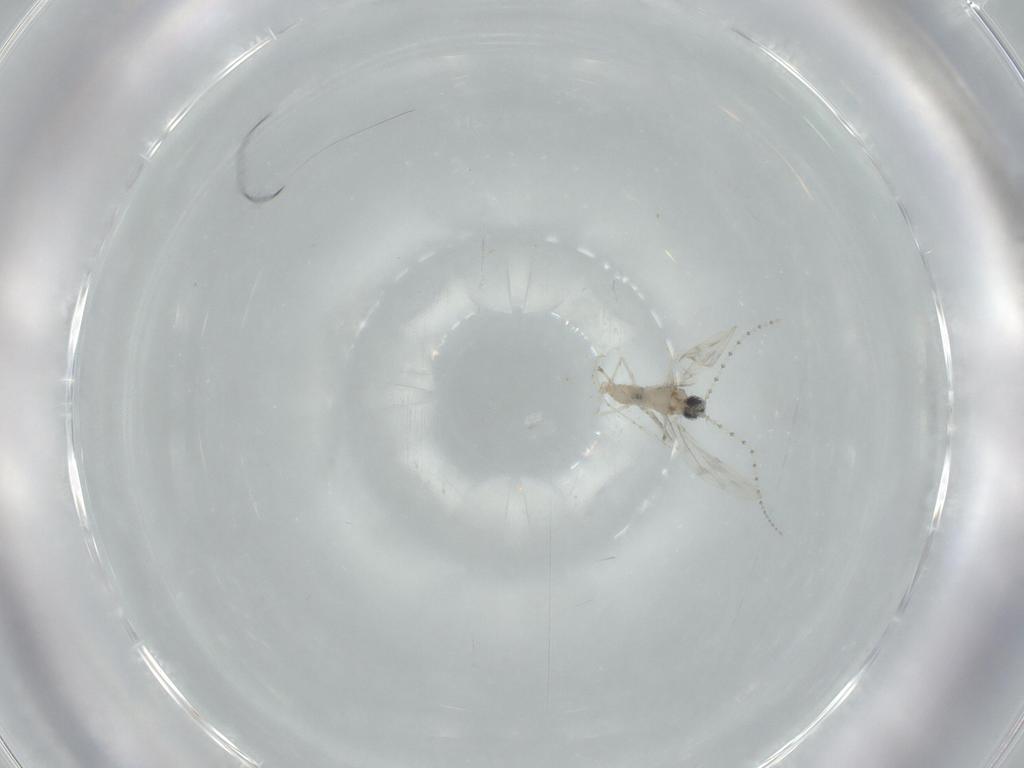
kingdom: Animalia
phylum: Arthropoda
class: Insecta
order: Diptera
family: Cecidomyiidae
